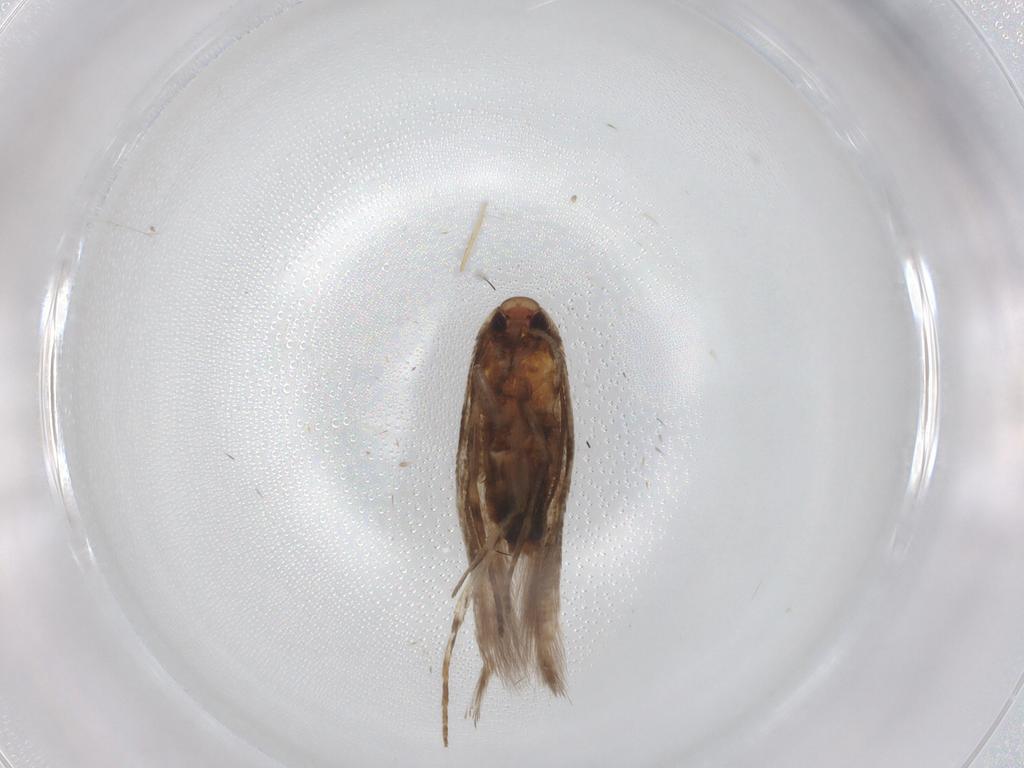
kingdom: Animalia
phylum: Arthropoda
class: Insecta
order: Lepidoptera
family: Cosmopterigidae
